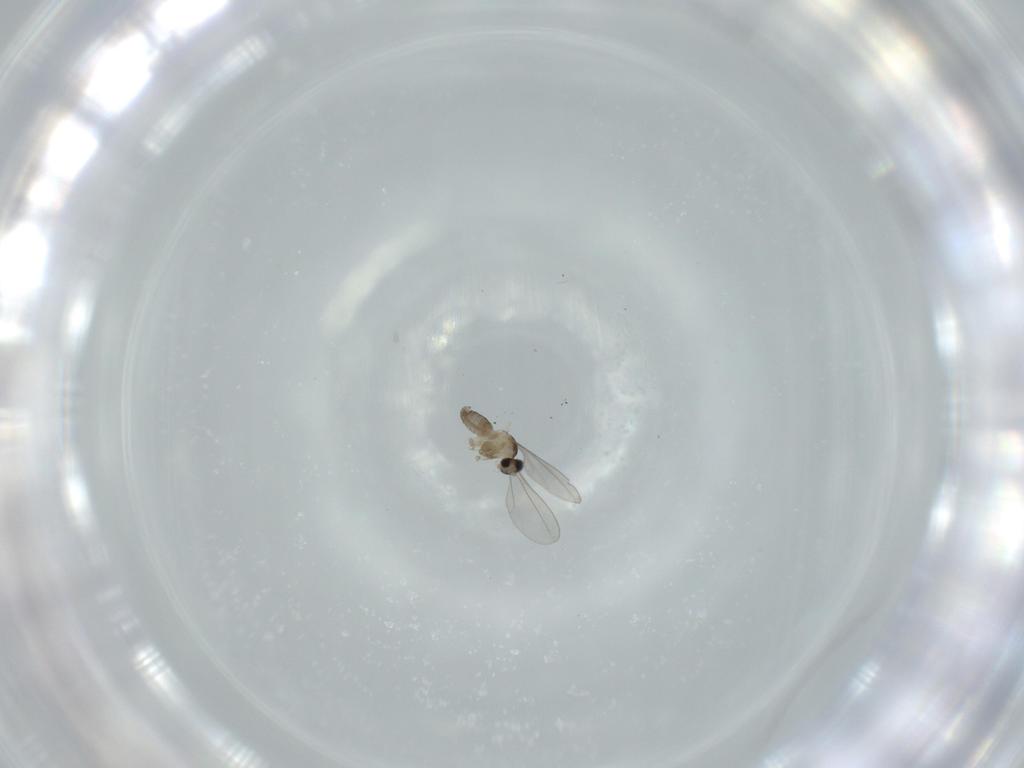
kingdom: Animalia
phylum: Arthropoda
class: Insecta
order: Diptera
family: Cecidomyiidae
